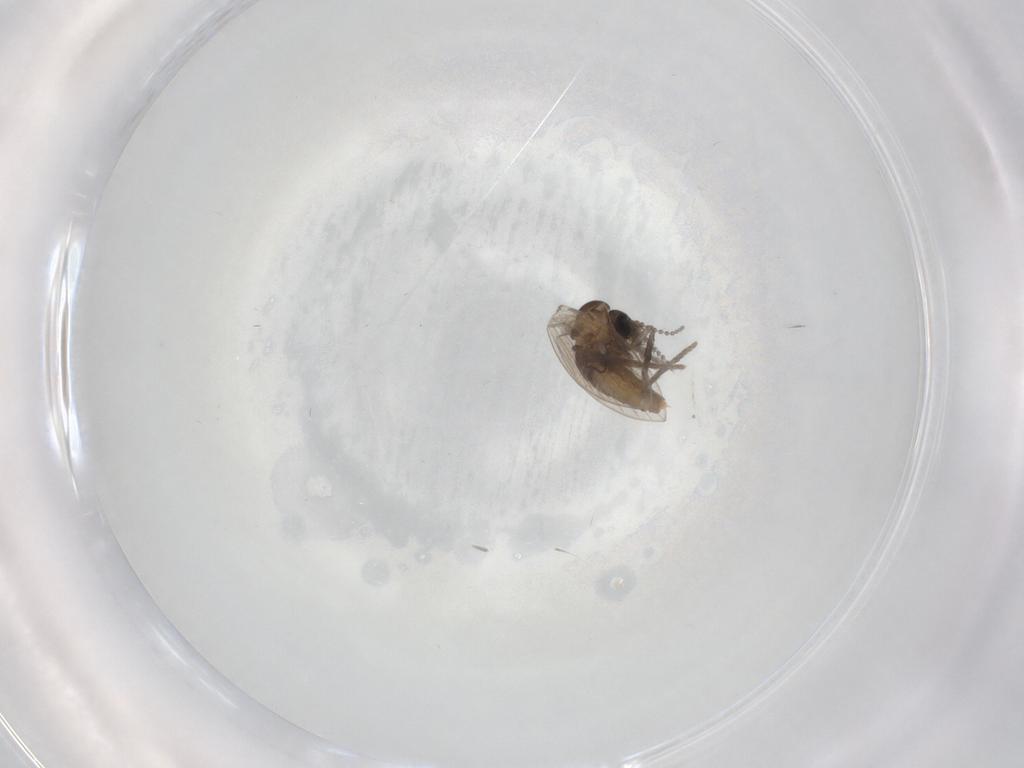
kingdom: Animalia
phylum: Arthropoda
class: Insecta
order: Diptera
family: Psychodidae
